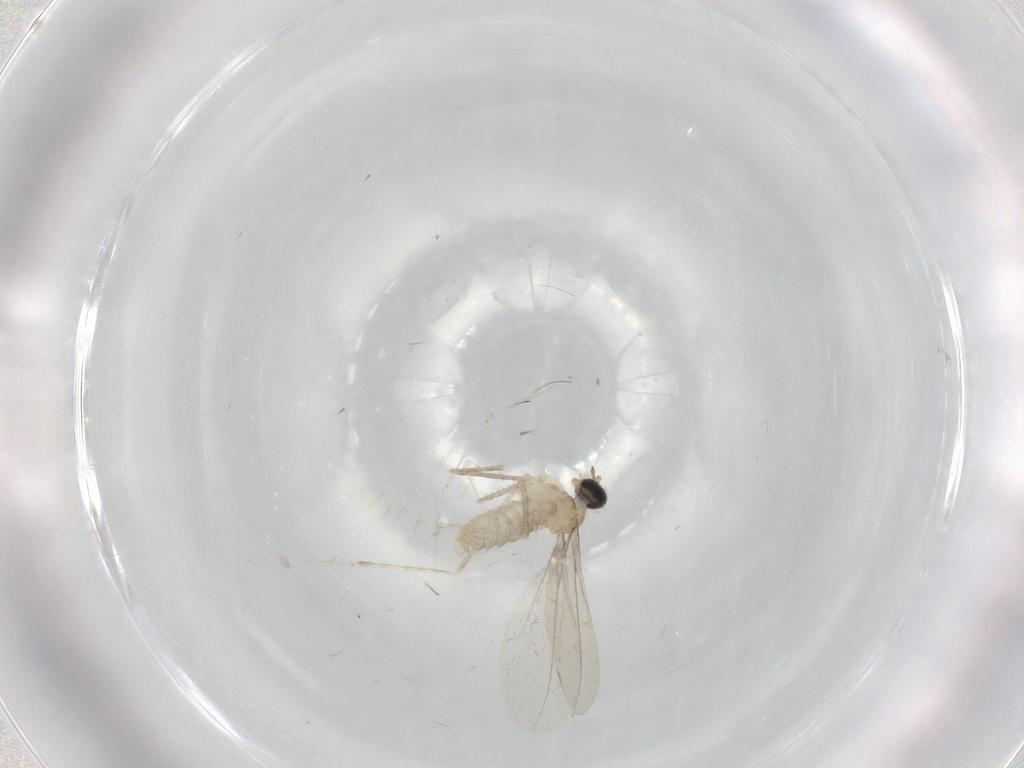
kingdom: Animalia
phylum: Arthropoda
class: Insecta
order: Diptera
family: Cecidomyiidae
